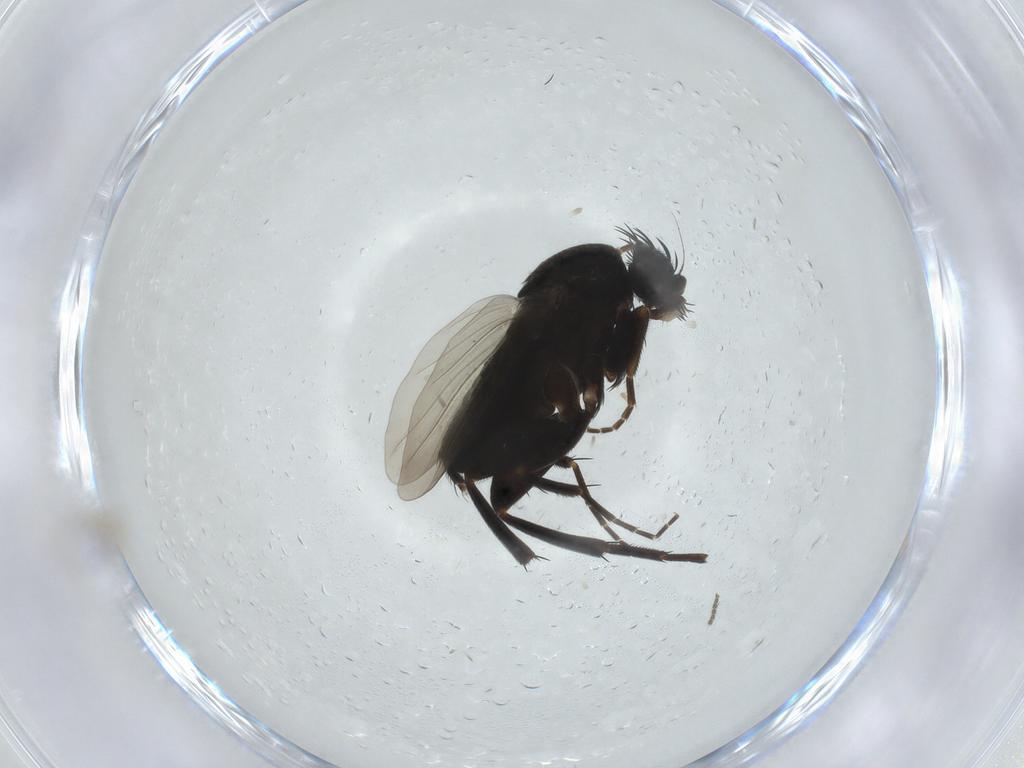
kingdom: Animalia
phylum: Arthropoda
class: Insecta
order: Diptera
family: Phoridae
